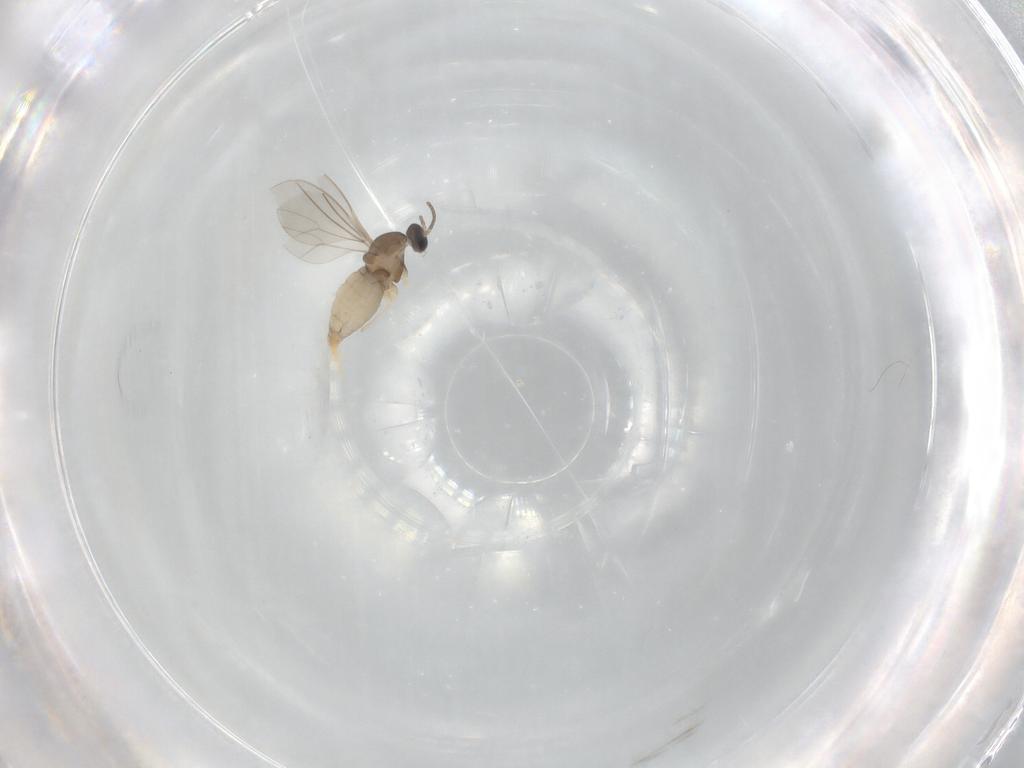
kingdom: Animalia
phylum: Arthropoda
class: Insecta
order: Diptera
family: Cecidomyiidae
